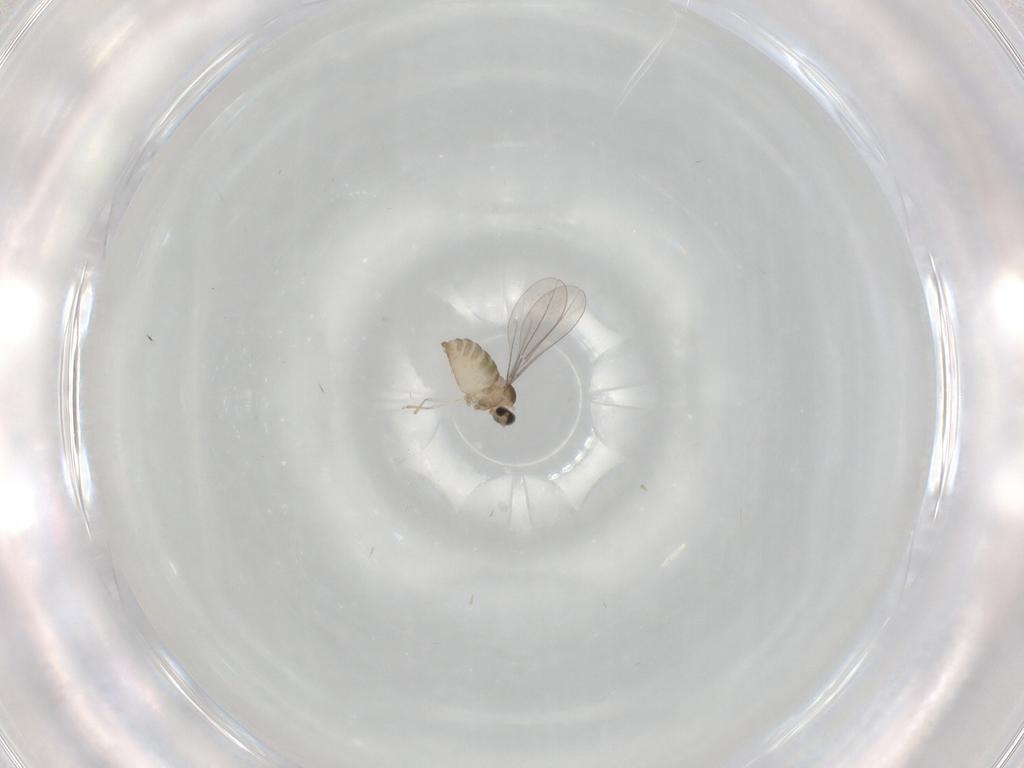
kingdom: Animalia
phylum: Arthropoda
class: Insecta
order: Diptera
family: Cecidomyiidae
